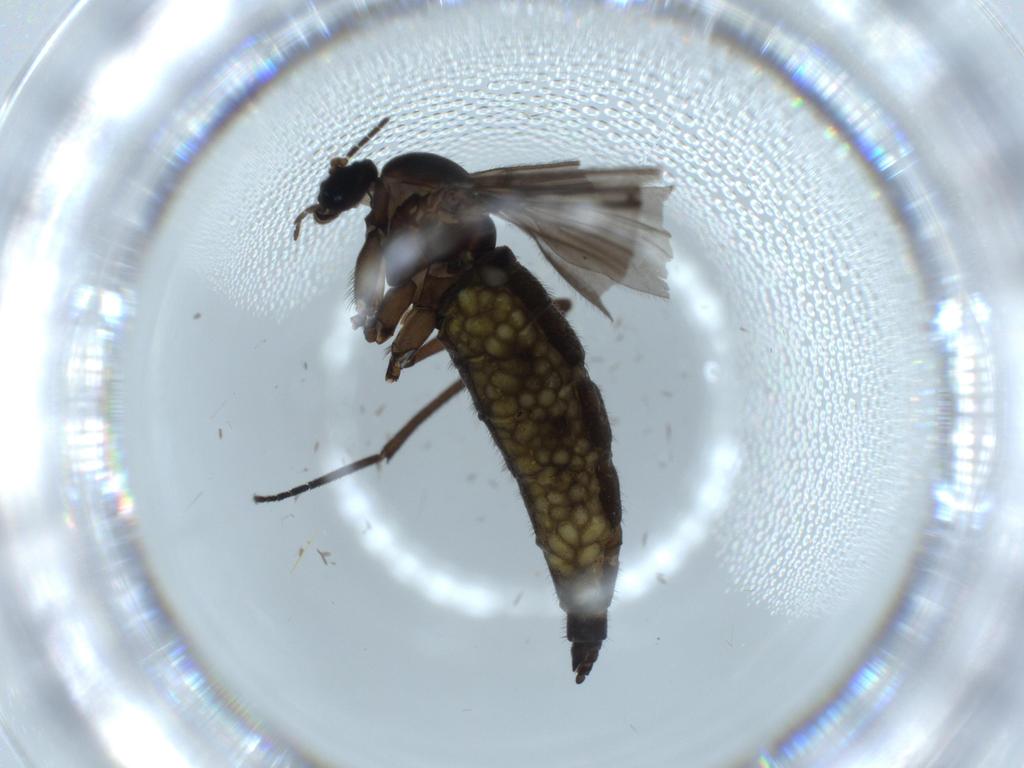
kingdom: Animalia
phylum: Arthropoda
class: Insecta
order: Diptera
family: Sciaridae
